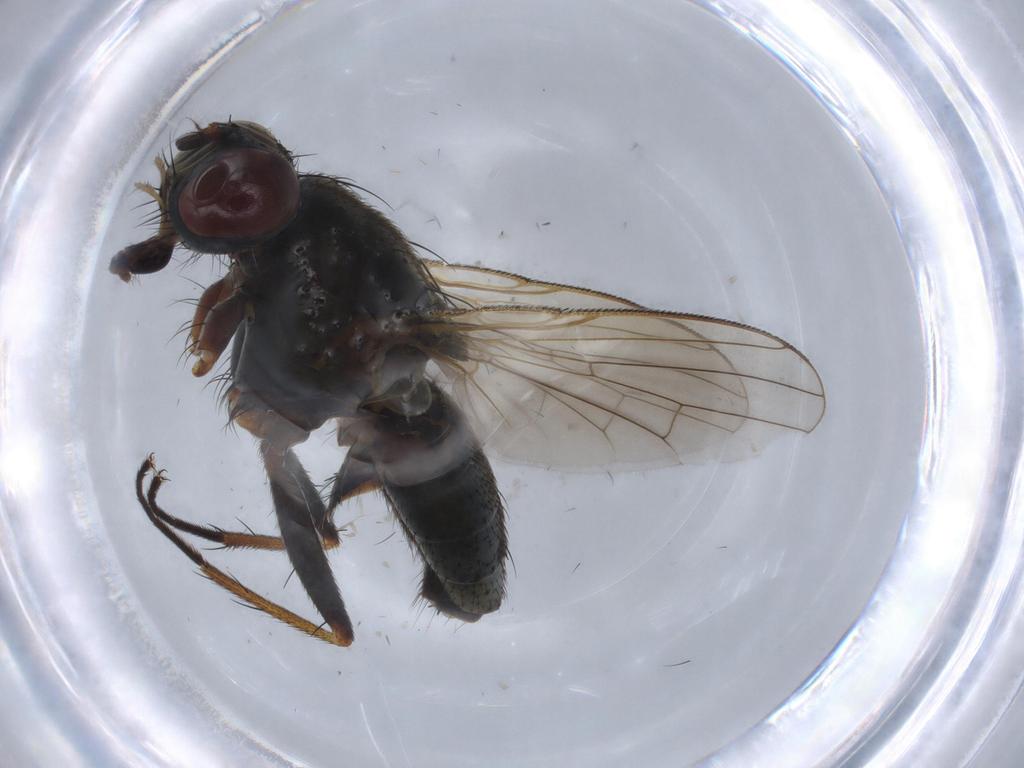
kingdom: Animalia
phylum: Arthropoda
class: Insecta
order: Diptera
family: Muscidae
